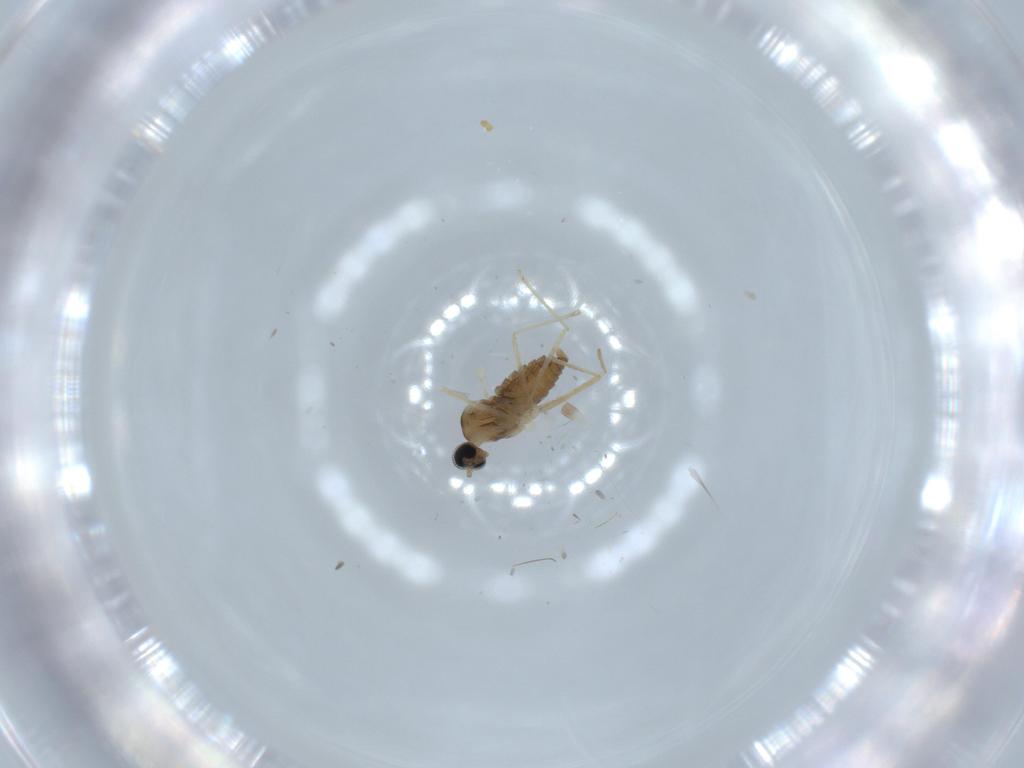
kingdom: Animalia
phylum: Arthropoda
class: Insecta
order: Diptera
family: Cecidomyiidae
